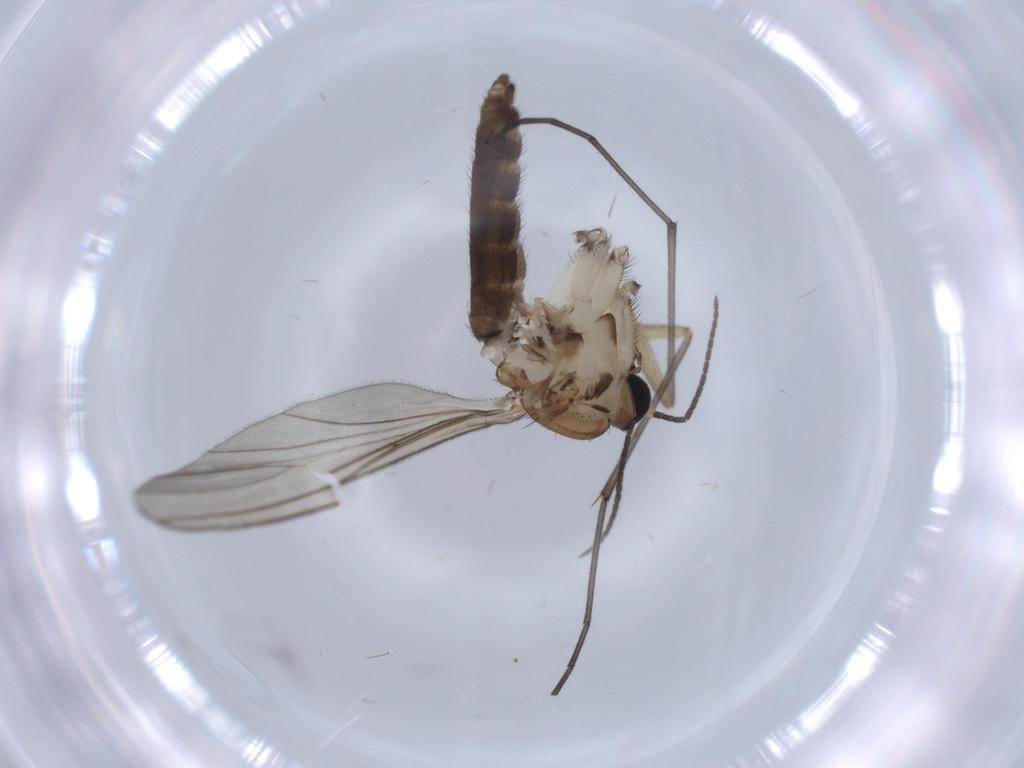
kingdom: Animalia
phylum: Arthropoda
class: Insecta
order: Diptera
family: Sciaridae
